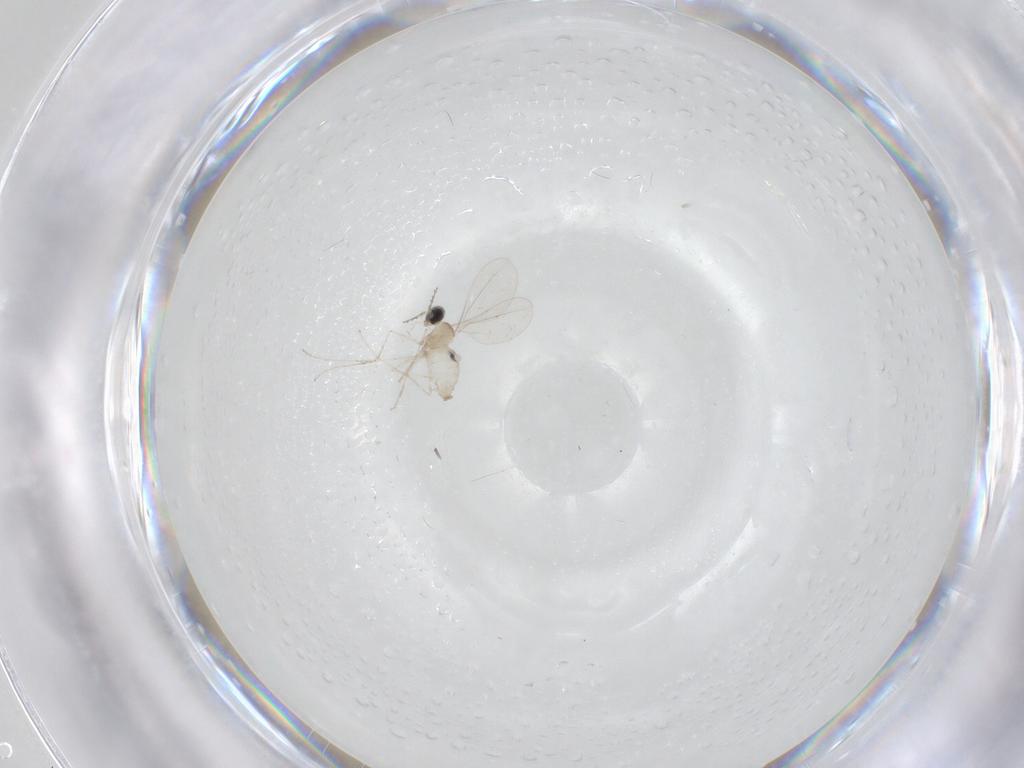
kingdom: Animalia
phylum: Arthropoda
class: Insecta
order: Diptera
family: Cecidomyiidae
